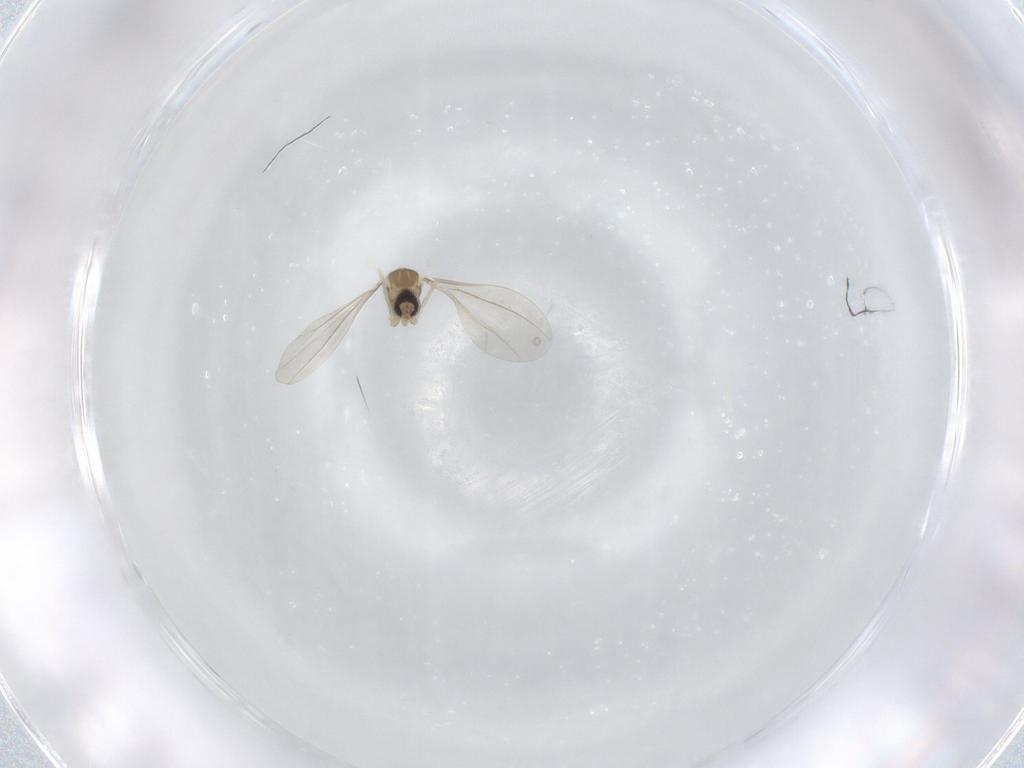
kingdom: Animalia
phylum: Arthropoda
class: Insecta
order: Diptera
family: Cecidomyiidae
